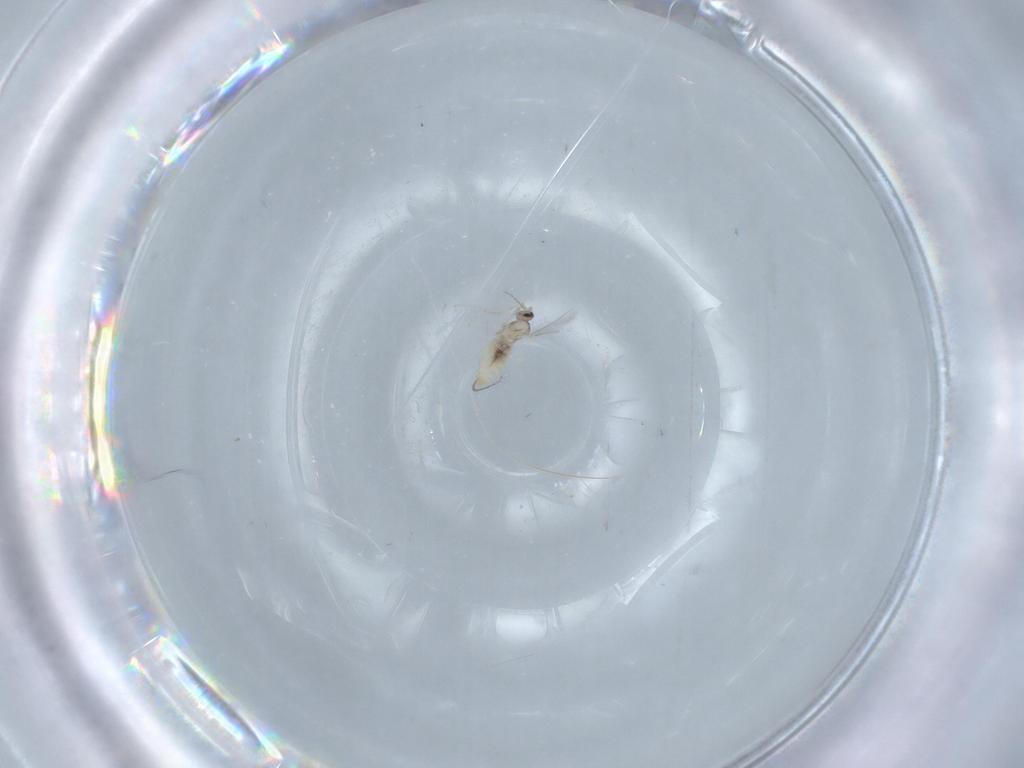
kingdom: Animalia
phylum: Arthropoda
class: Insecta
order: Diptera
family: Cecidomyiidae
